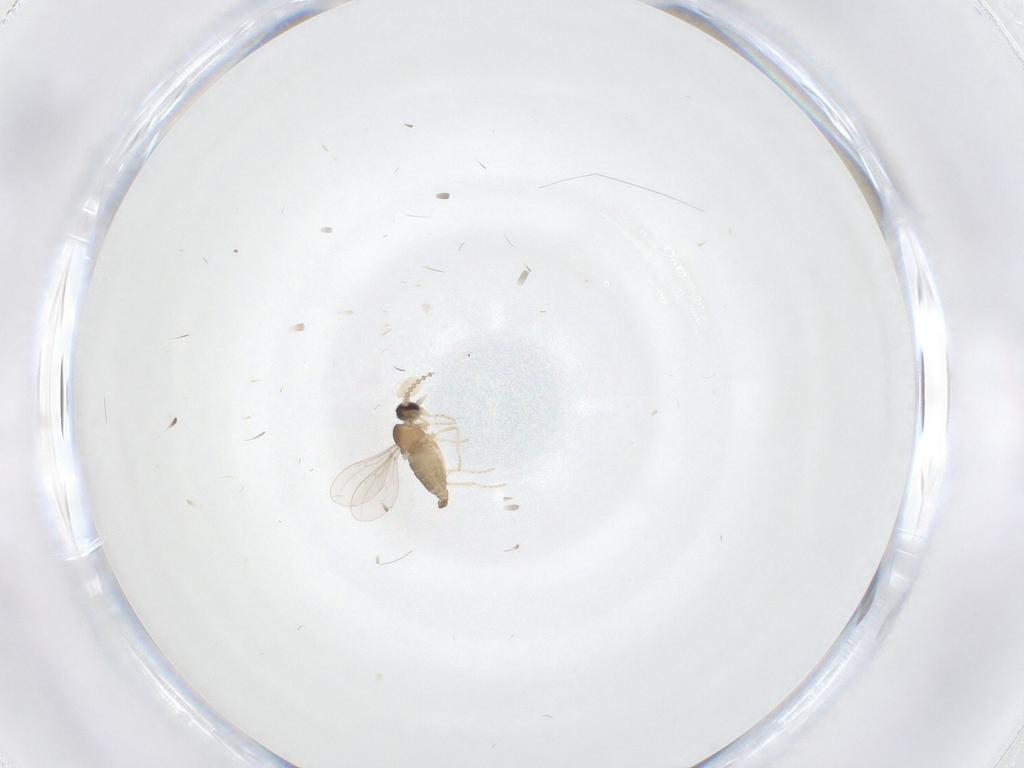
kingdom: Animalia
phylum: Arthropoda
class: Insecta
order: Diptera
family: Cecidomyiidae
